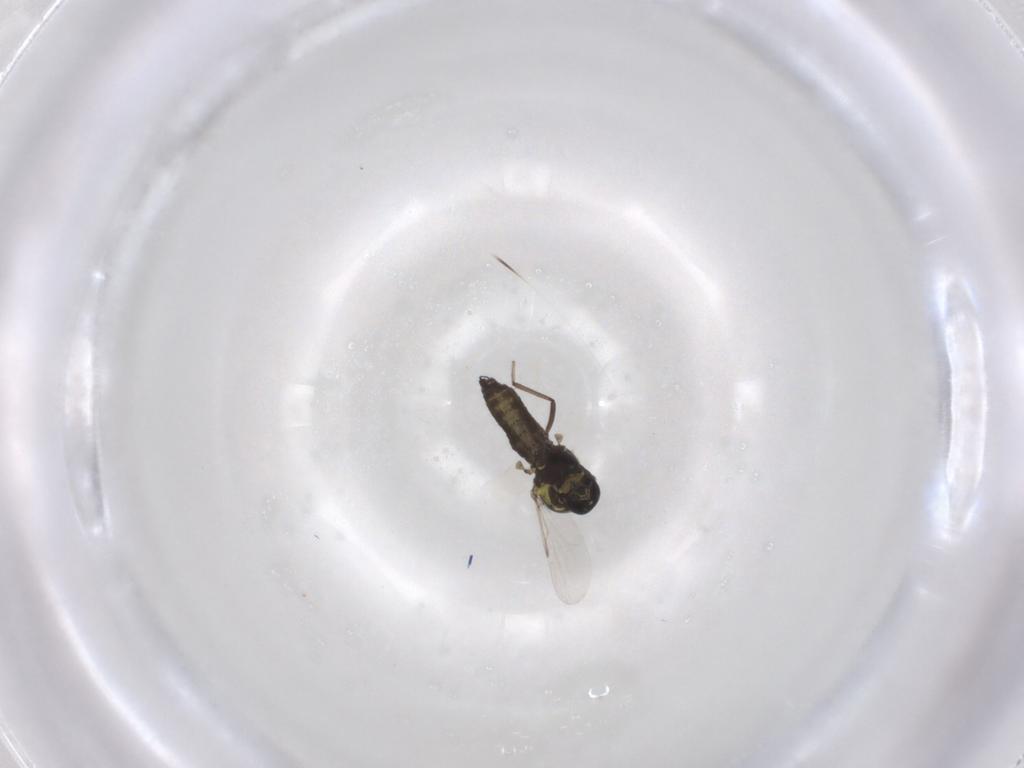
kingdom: Animalia
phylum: Arthropoda
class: Insecta
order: Diptera
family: Ceratopogonidae
